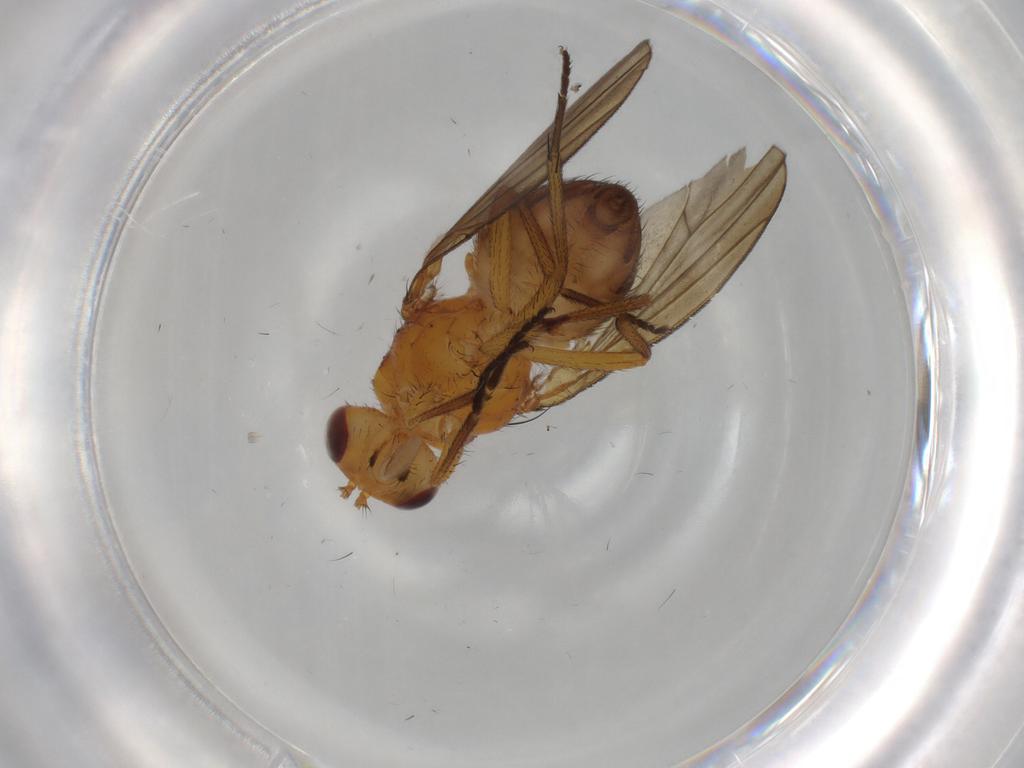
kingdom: Animalia
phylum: Arthropoda
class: Insecta
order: Diptera
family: Lauxaniidae
